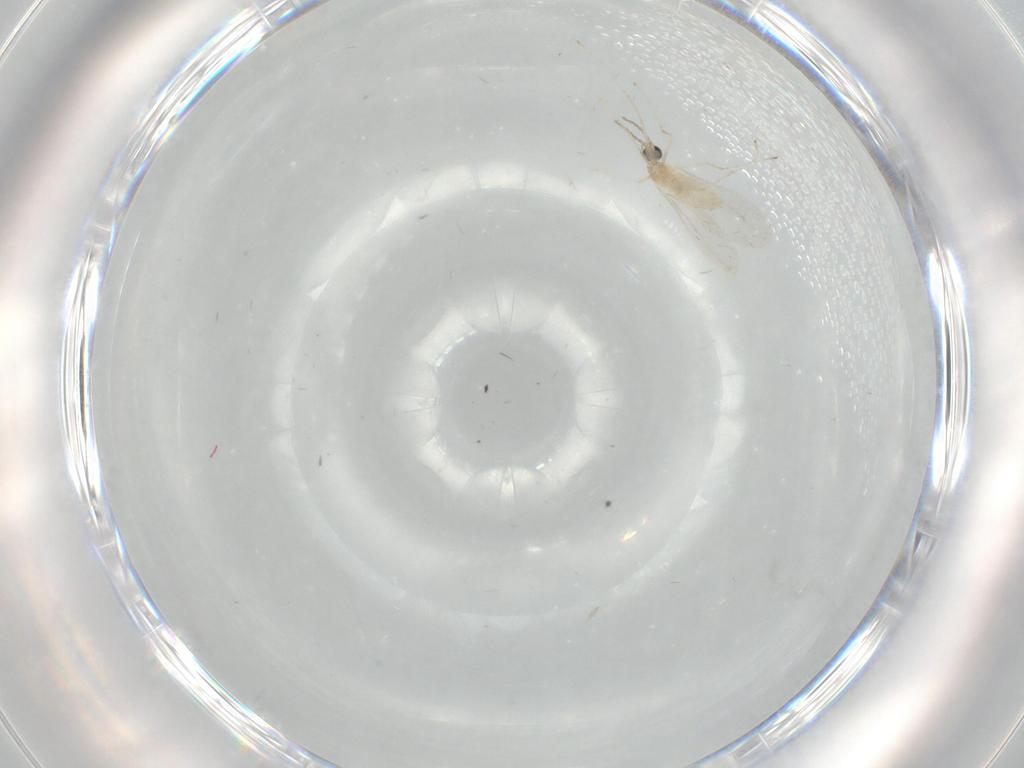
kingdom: Animalia
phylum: Arthropoda
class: Insecta
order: Diptera
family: Cecidomyiidae
